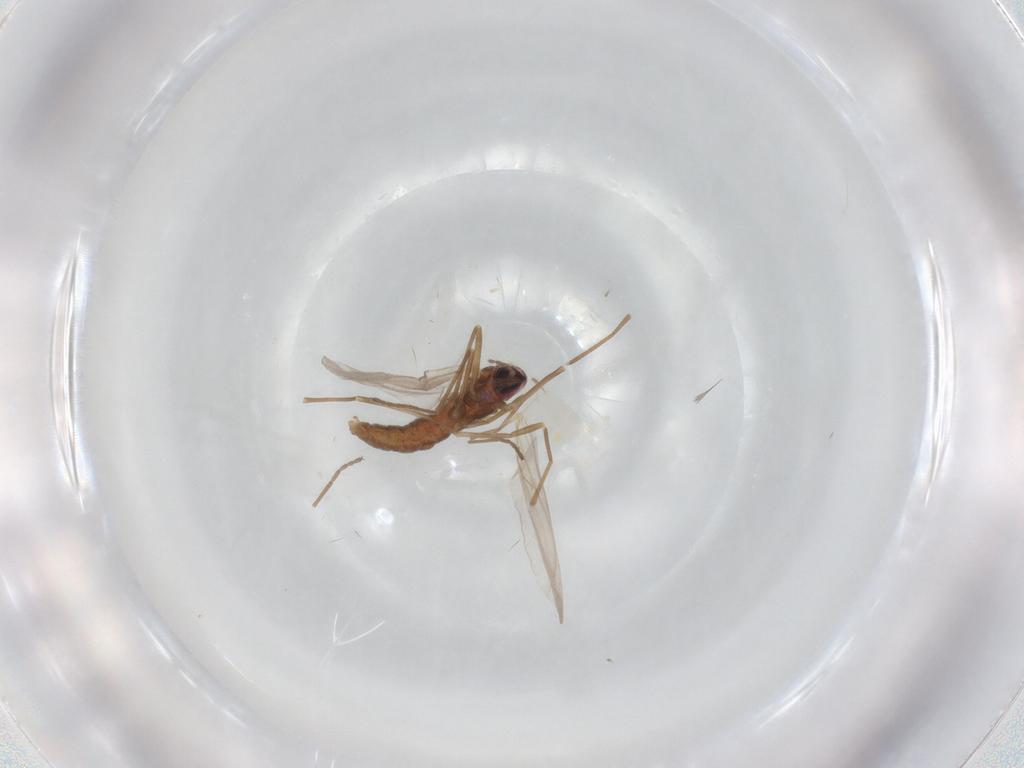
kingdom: Animalia
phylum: Arthropoda
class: Insecta
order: Diptera
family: Cecidomyiidae
